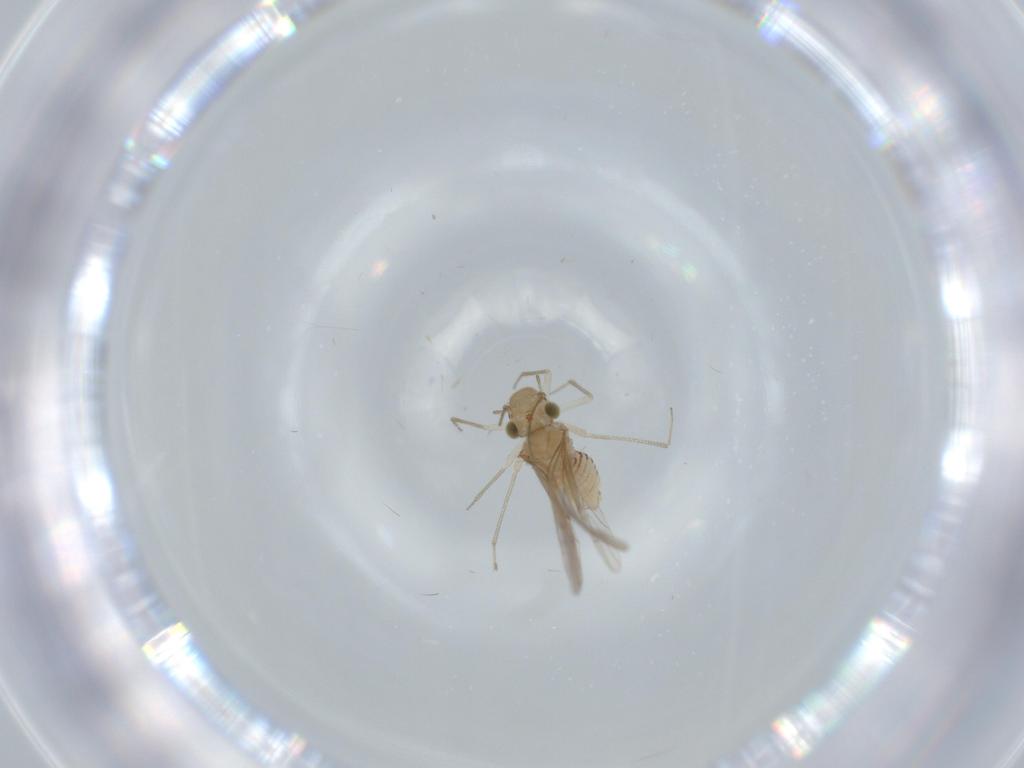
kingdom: Animalia
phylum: Arthropoda
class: Insecta
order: Psocodea
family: Lachesillidae
